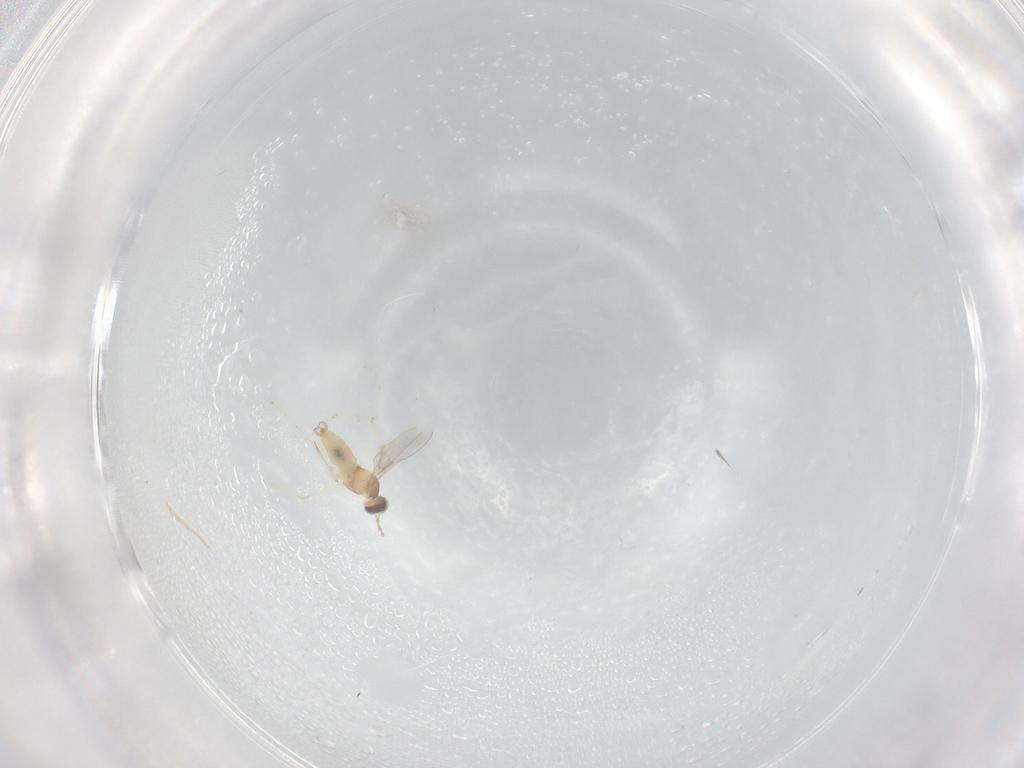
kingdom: Animalia
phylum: Arthropoda
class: Insecta
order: Diptera
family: Cecidomyiidae
